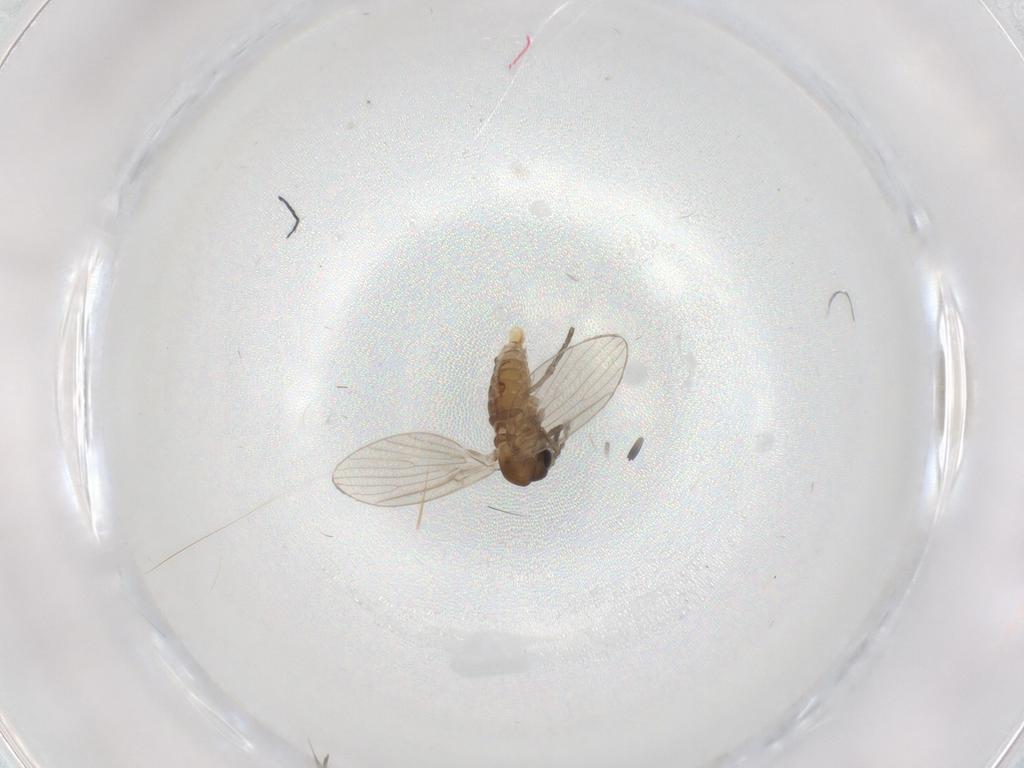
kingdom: Animalia
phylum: Arthropoda
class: Insecta
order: Diptera
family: Psychodidae
